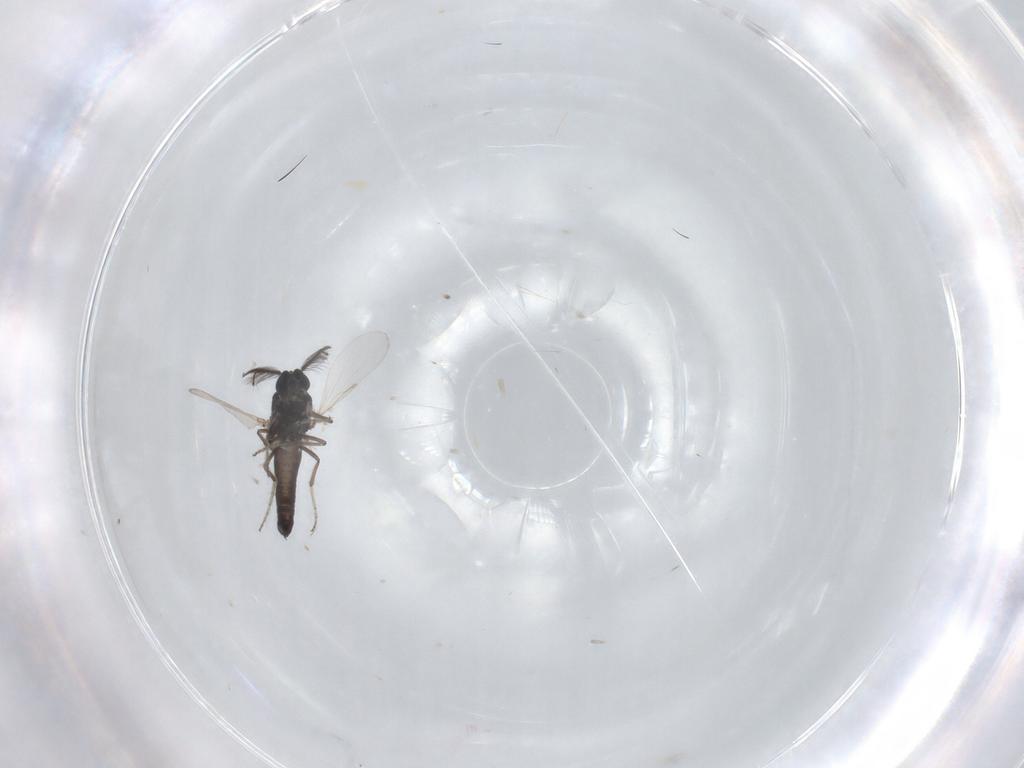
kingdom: Animalia
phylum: Arthropoda
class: Insecta
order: Diptera
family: Ceratopogonidae
